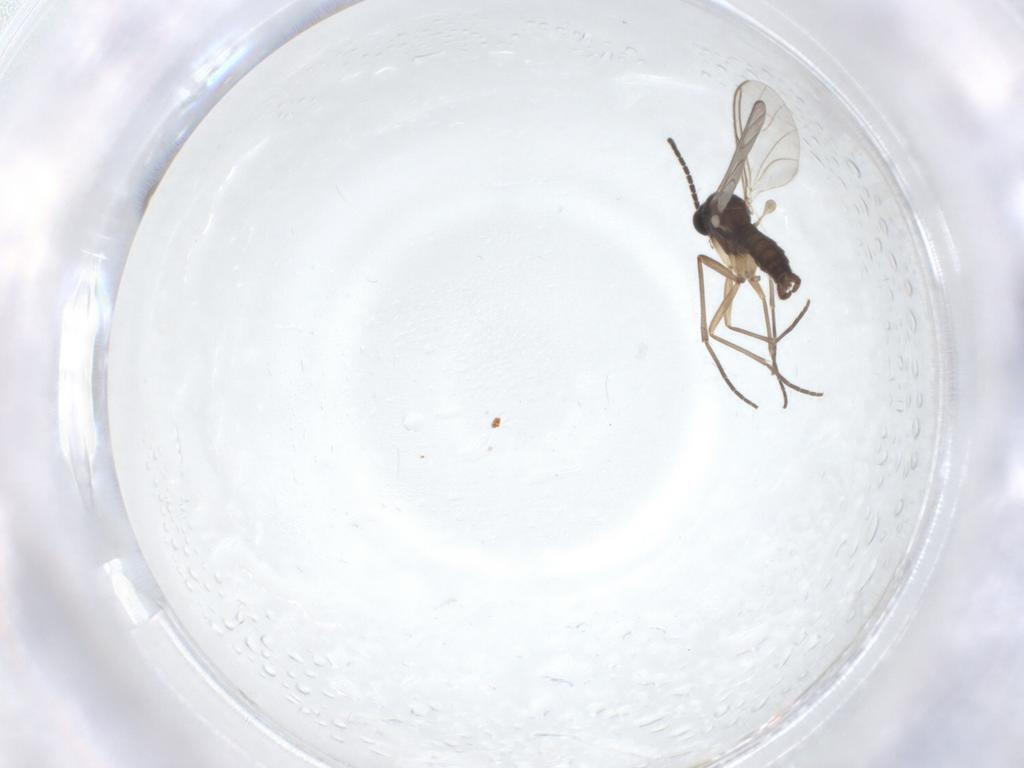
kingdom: Animalia
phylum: Arthropoda
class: Insecta
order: Diptera
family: Sciaridae
